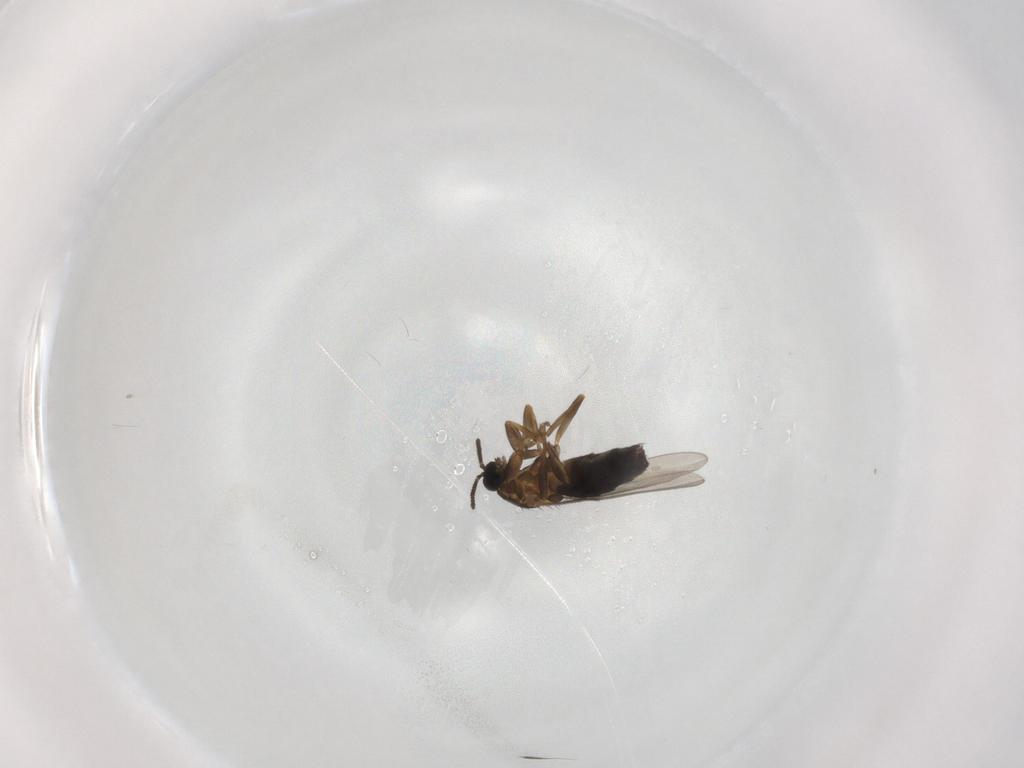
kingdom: Animalia
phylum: Arthropoda
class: Insecta
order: Diptera
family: Scatopsidae
